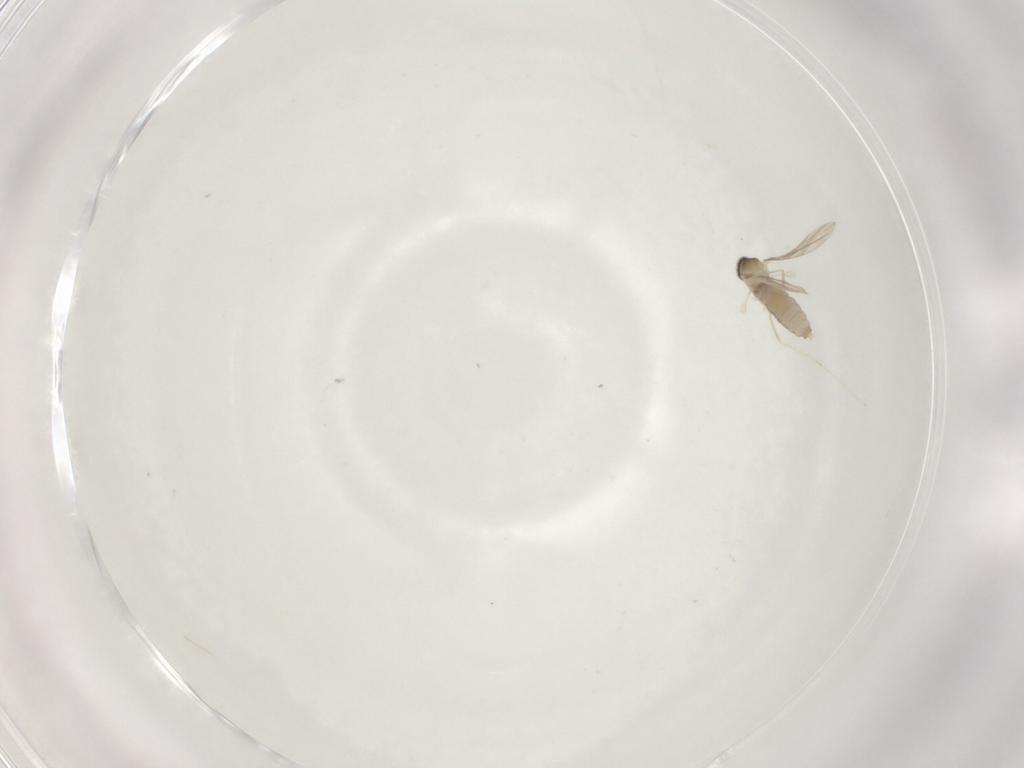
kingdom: Animalia
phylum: Arthropoda
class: Insecta
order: Diptera
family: Cecidomyiidae
